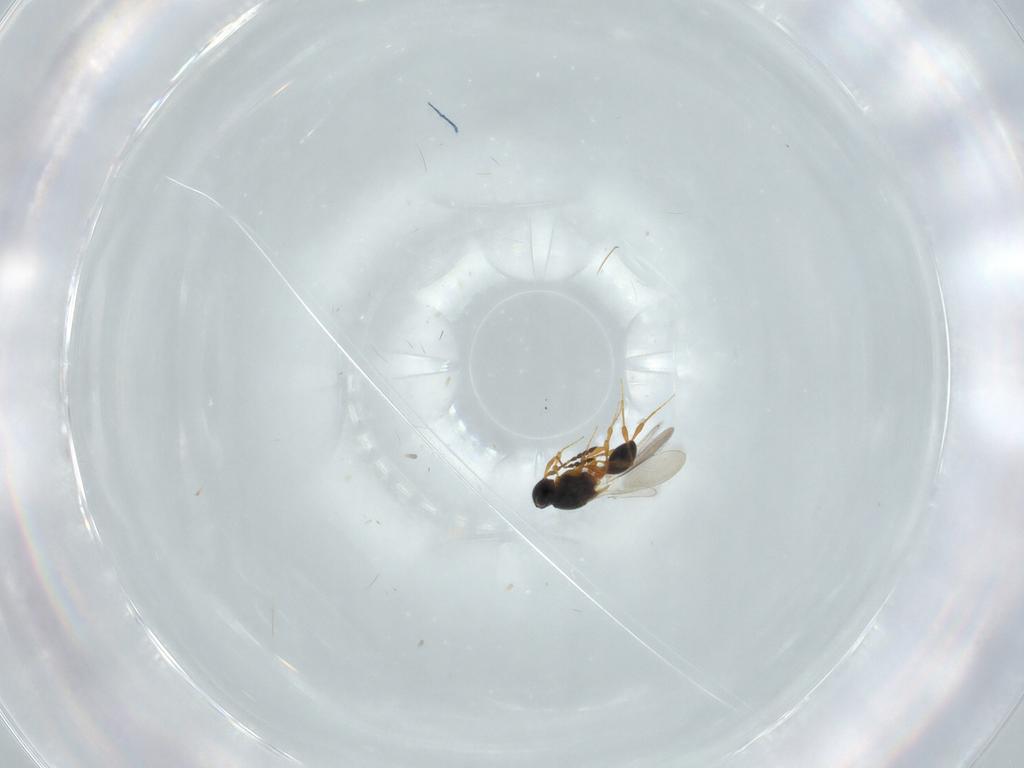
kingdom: Animalia
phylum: Arthropoda
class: Insecta
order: Hymenoptera
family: Platygastridae
